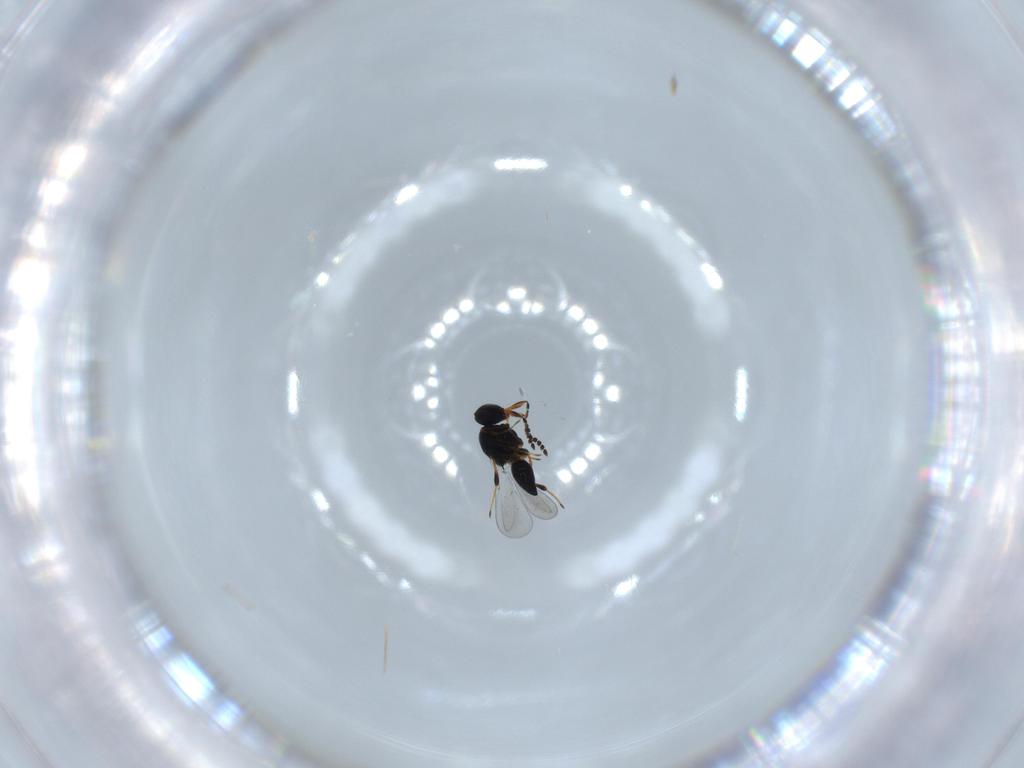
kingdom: Animalia
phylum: Arthropoda
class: Insecta
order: Hymenoptera
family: Platygastridae
